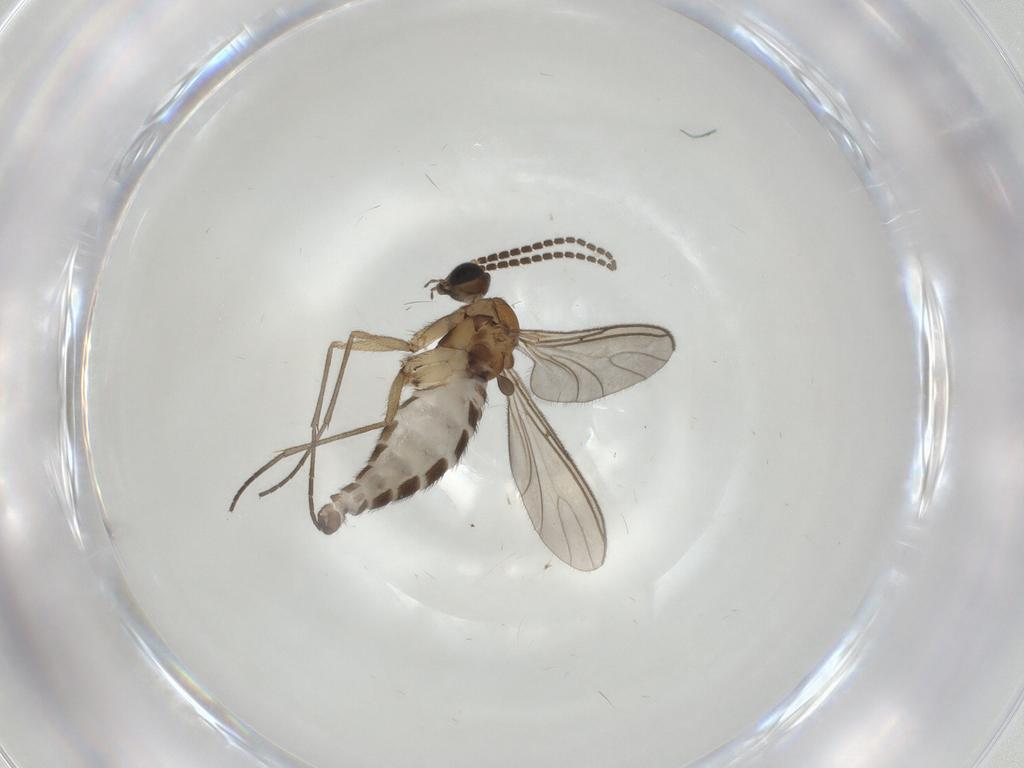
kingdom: Animalia
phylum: Arthropoda
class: Insecta
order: Diptera
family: Sciaridae
